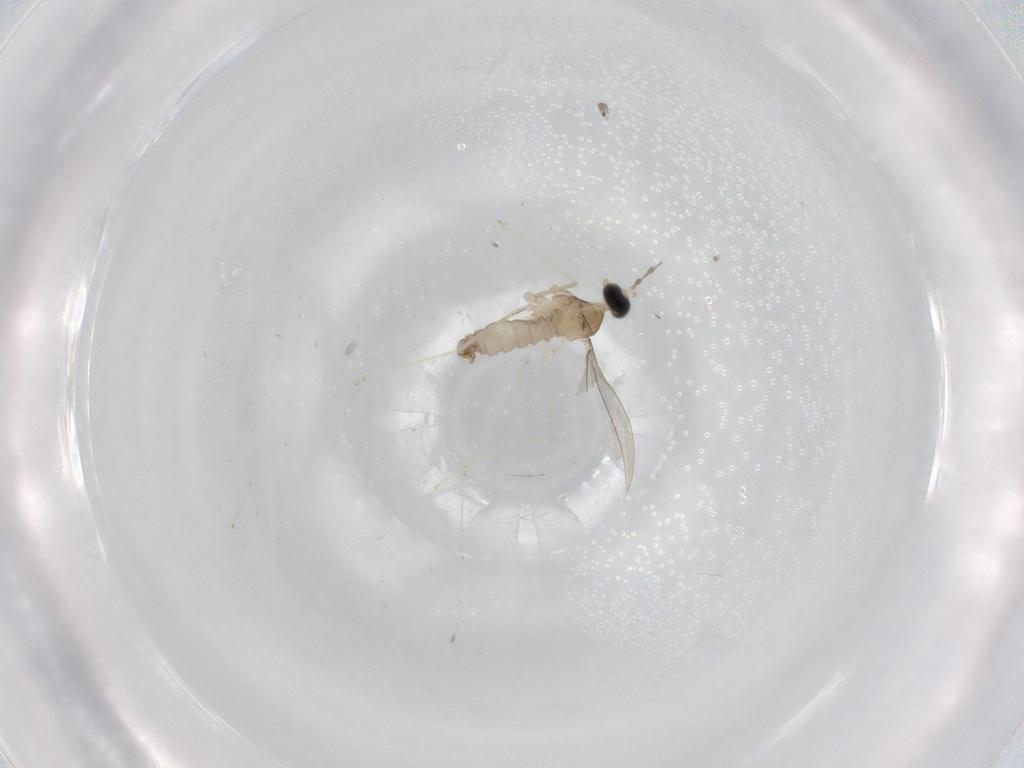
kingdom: Animalia
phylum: Arthropoda
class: Insecta
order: Diptera
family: Cecidomyiidae
